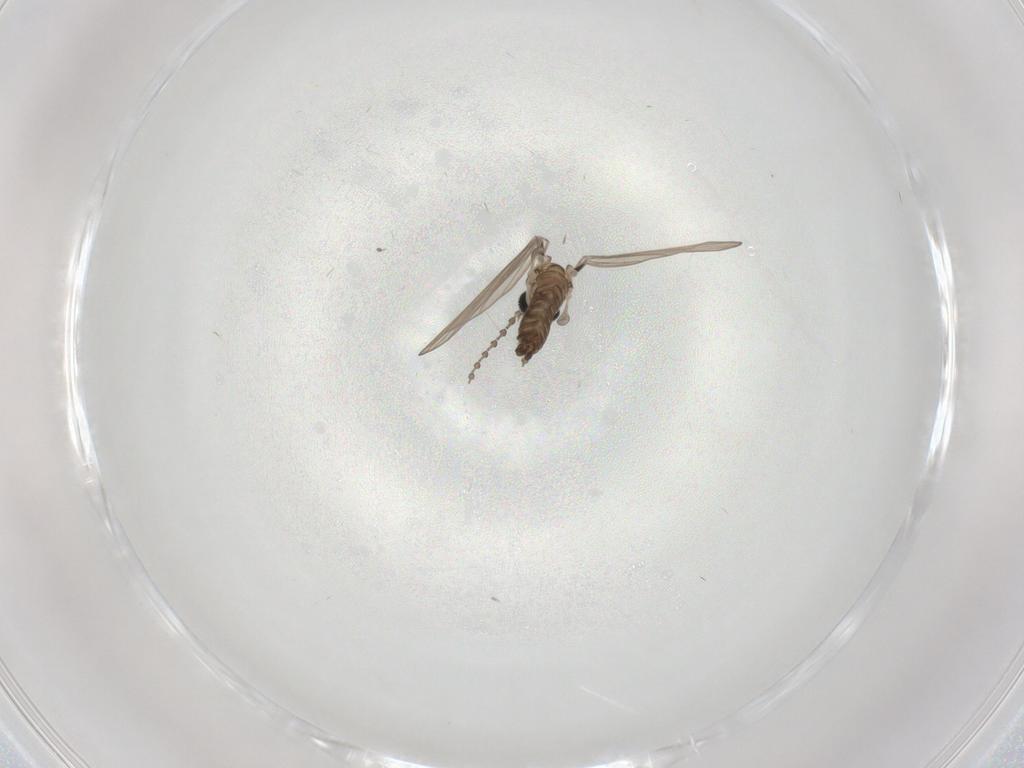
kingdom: Animalia
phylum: Arthropoda
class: Insecta
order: Diptera
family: Psychodidae
